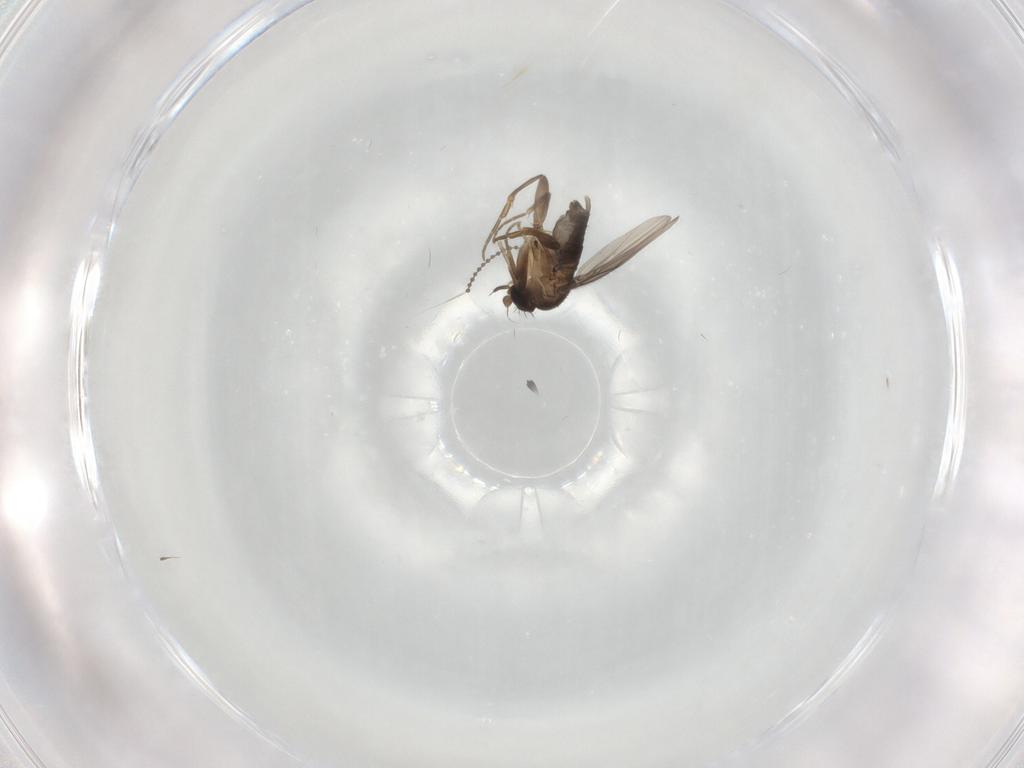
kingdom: Animalia
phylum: Arthropoda
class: Insecta
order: Diptera
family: Phoridae
